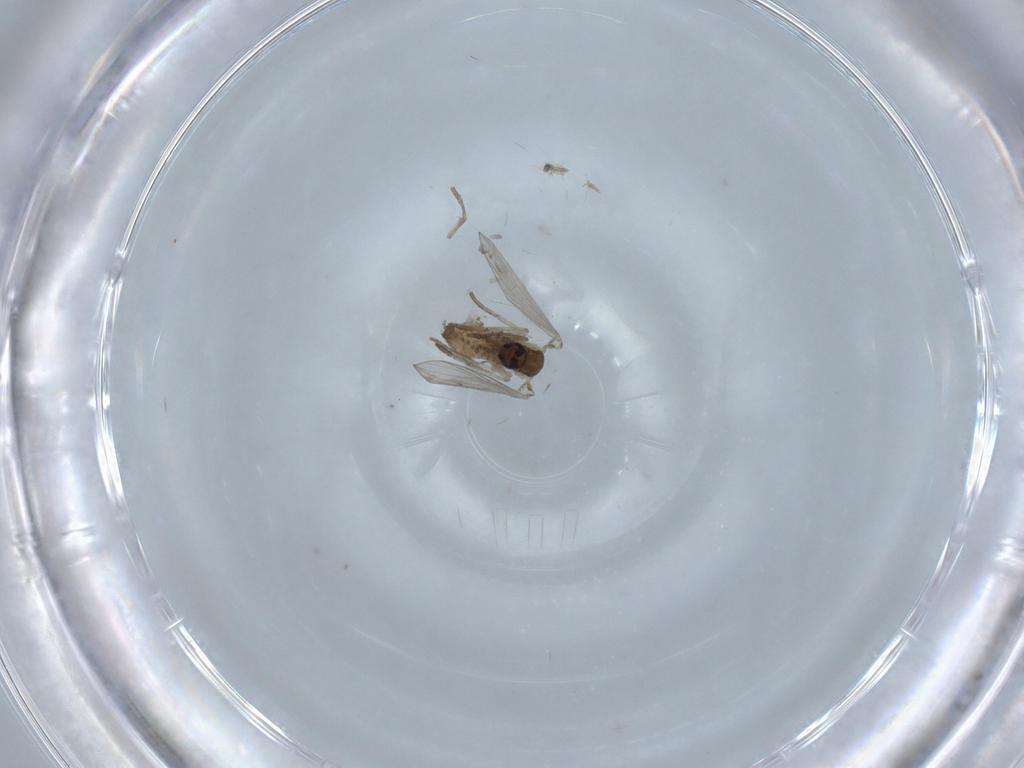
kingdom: Animalia
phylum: Arthropoda
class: Insecta
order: Diptera
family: Psychodidae
